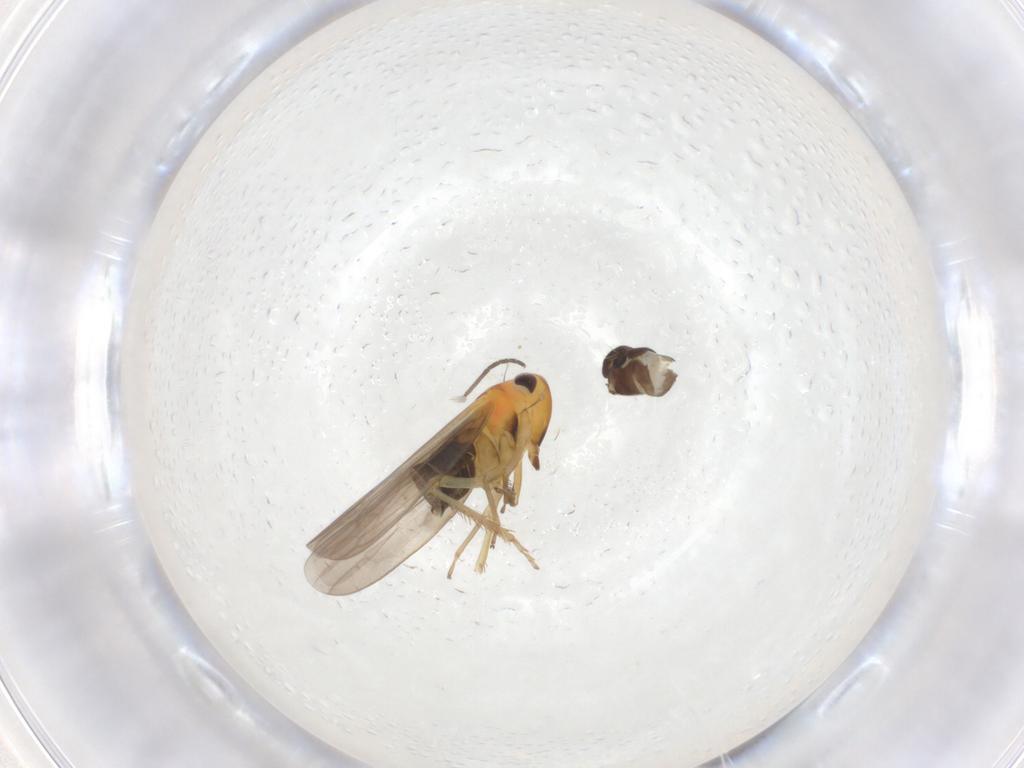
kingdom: Animalia
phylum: Arthropoda
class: Insecta
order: Hemiptera
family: Cicadellidae
